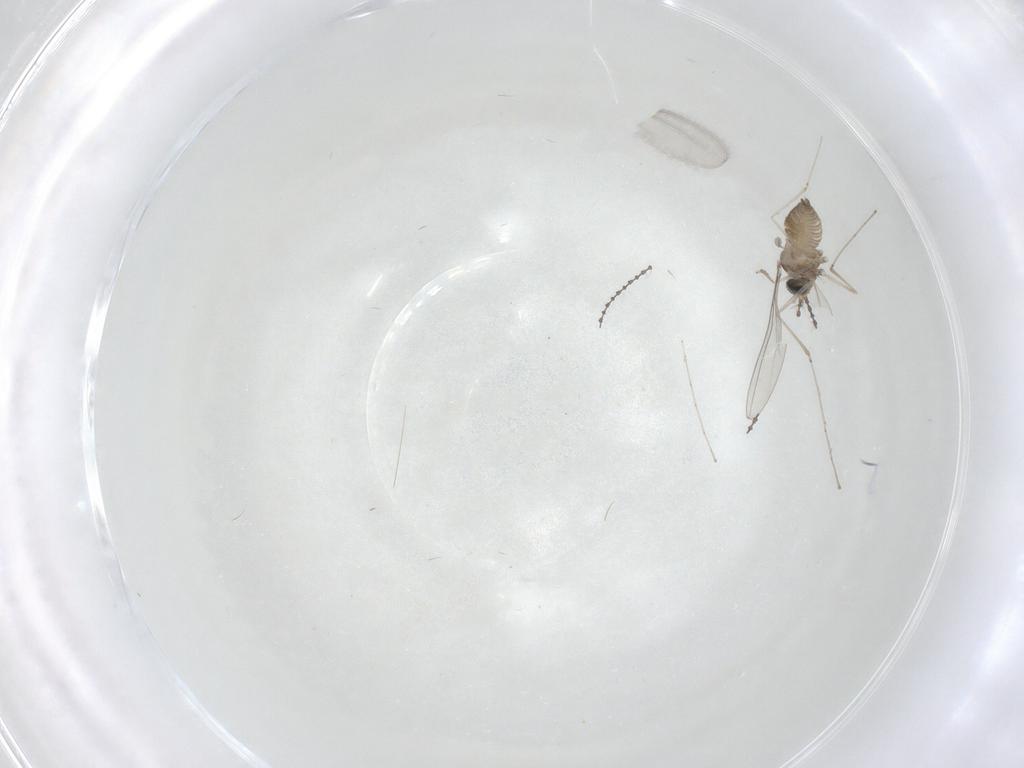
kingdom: Animalia
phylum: Arthropoda
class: Insecta
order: Diptera
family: Cecidomyiidae
